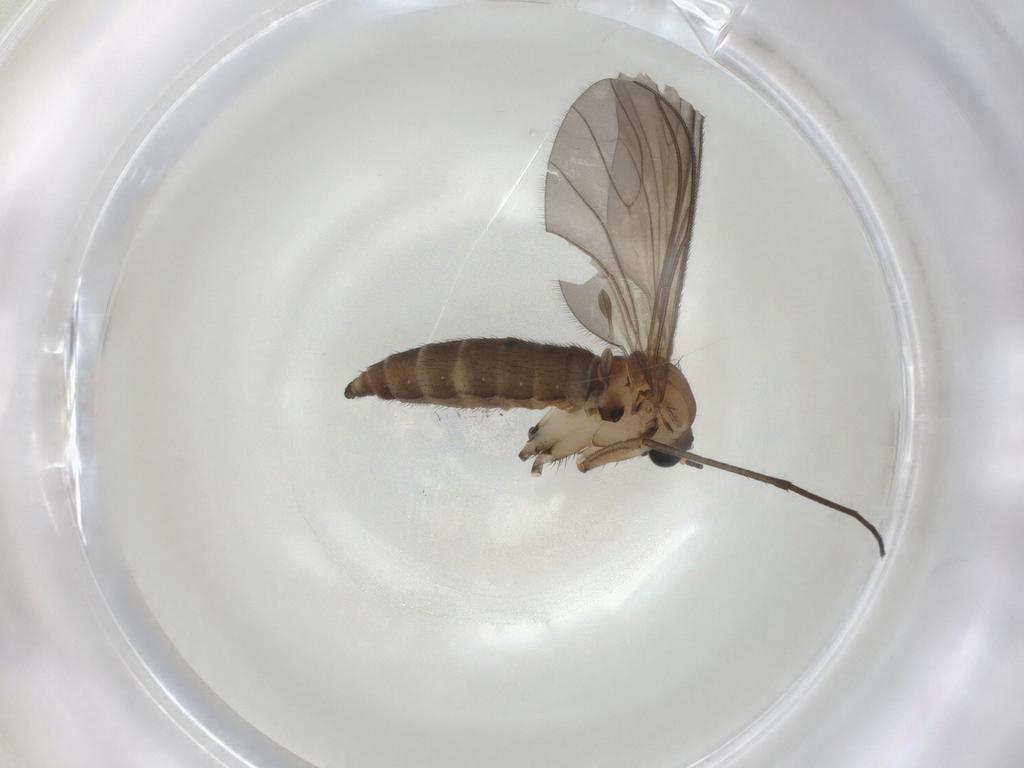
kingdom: Animalia
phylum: Arthropoda
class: Insecta
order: Diptera
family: Sciaridae
